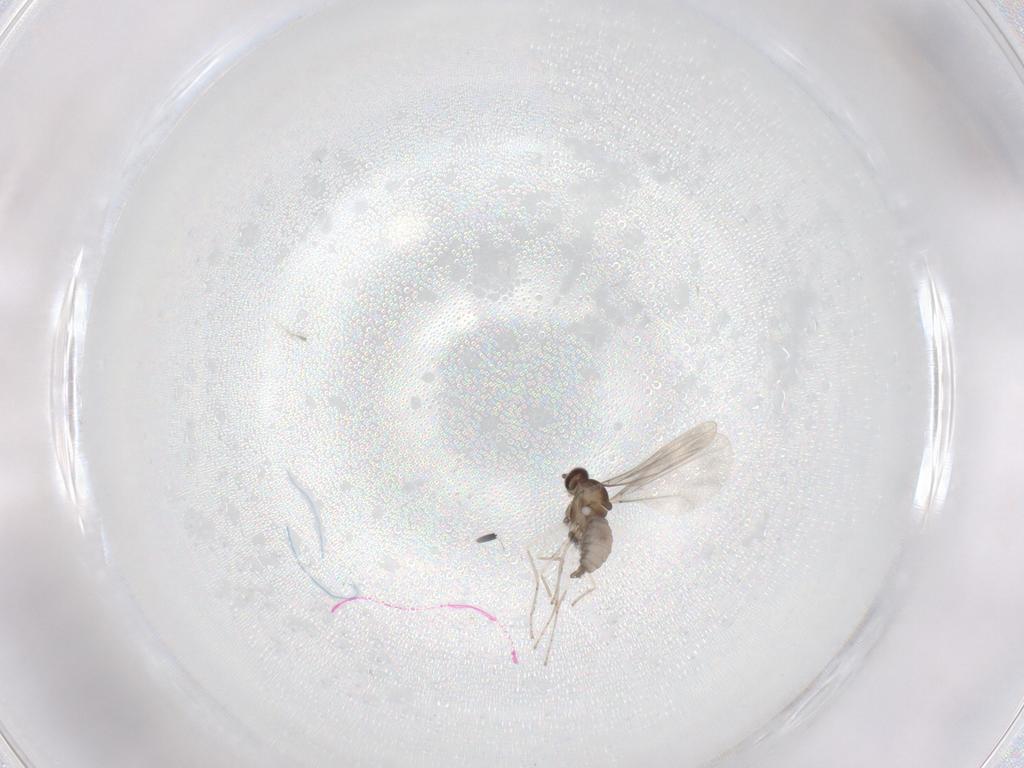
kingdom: Animalia
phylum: Arthropoda
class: Insecta
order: Diptera
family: Cecidomyiidae
